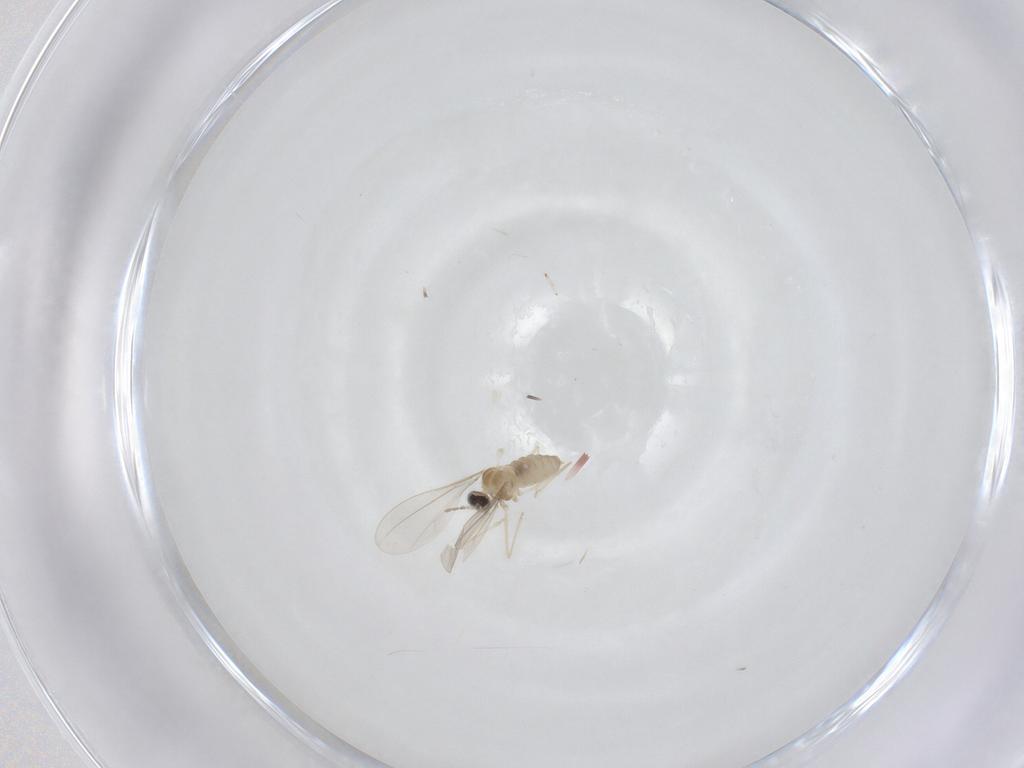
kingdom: Animalia
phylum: Arthropoda
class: Insecta
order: Diptera
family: Cecidomyiidae
